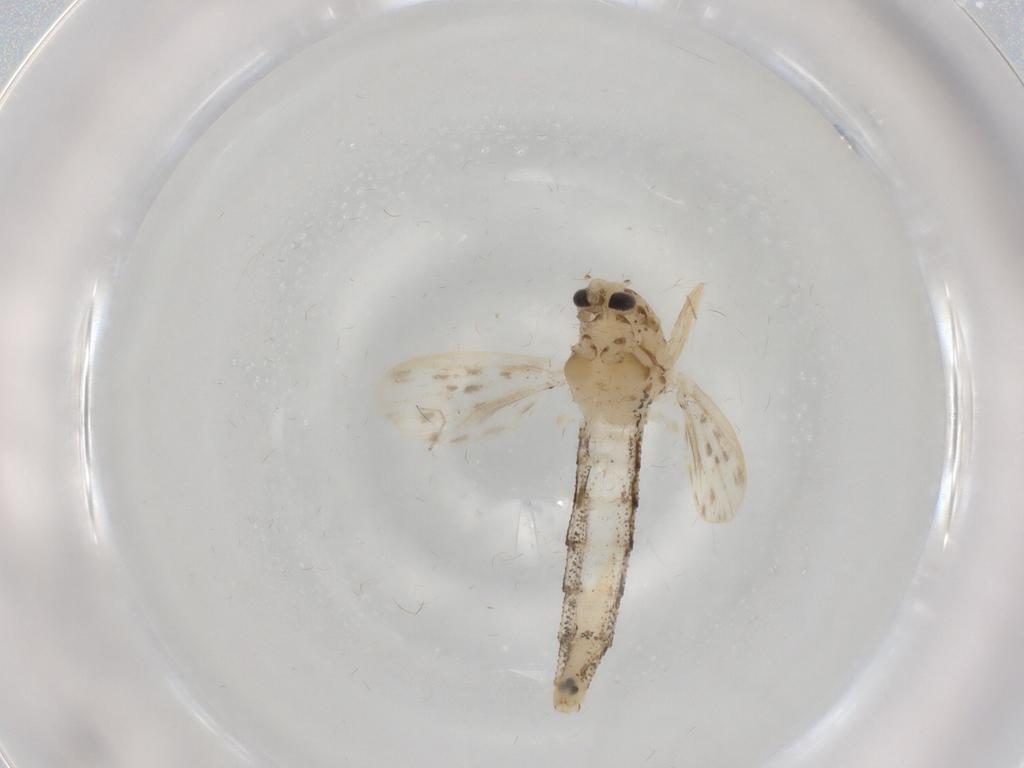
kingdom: Animalia
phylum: Arthropoda
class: Insecta
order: Diptera
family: Chaoboridae
